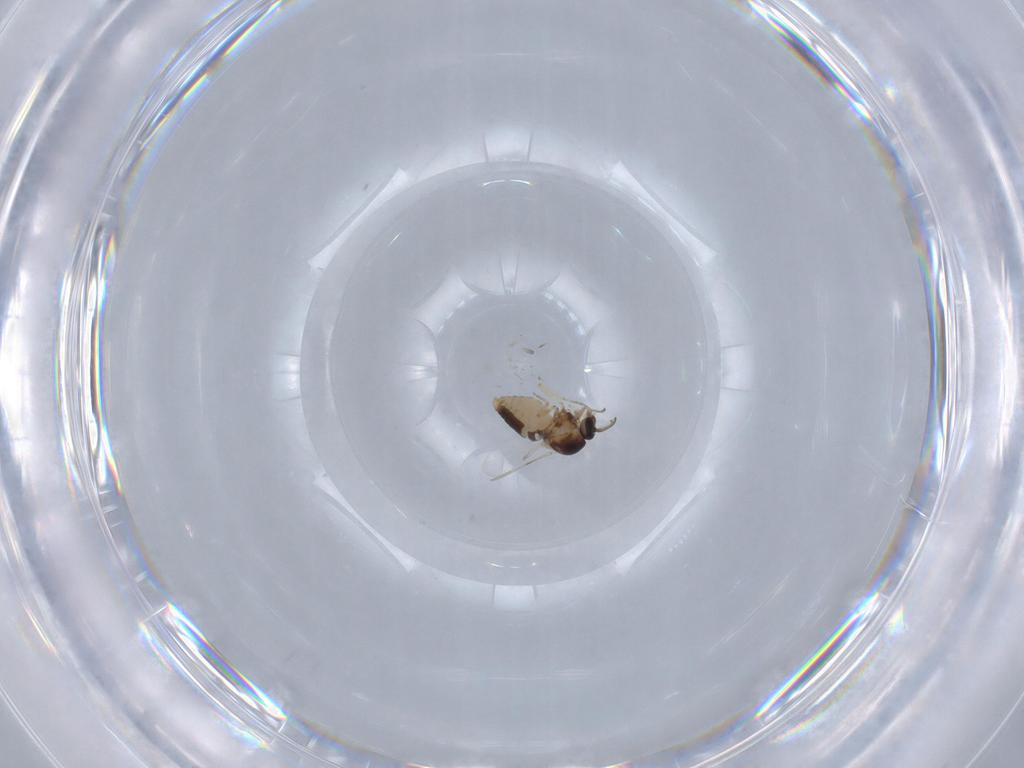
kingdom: Animalia
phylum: Arthropoda
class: Insecta
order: Diptera
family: Ceratopogonidae
